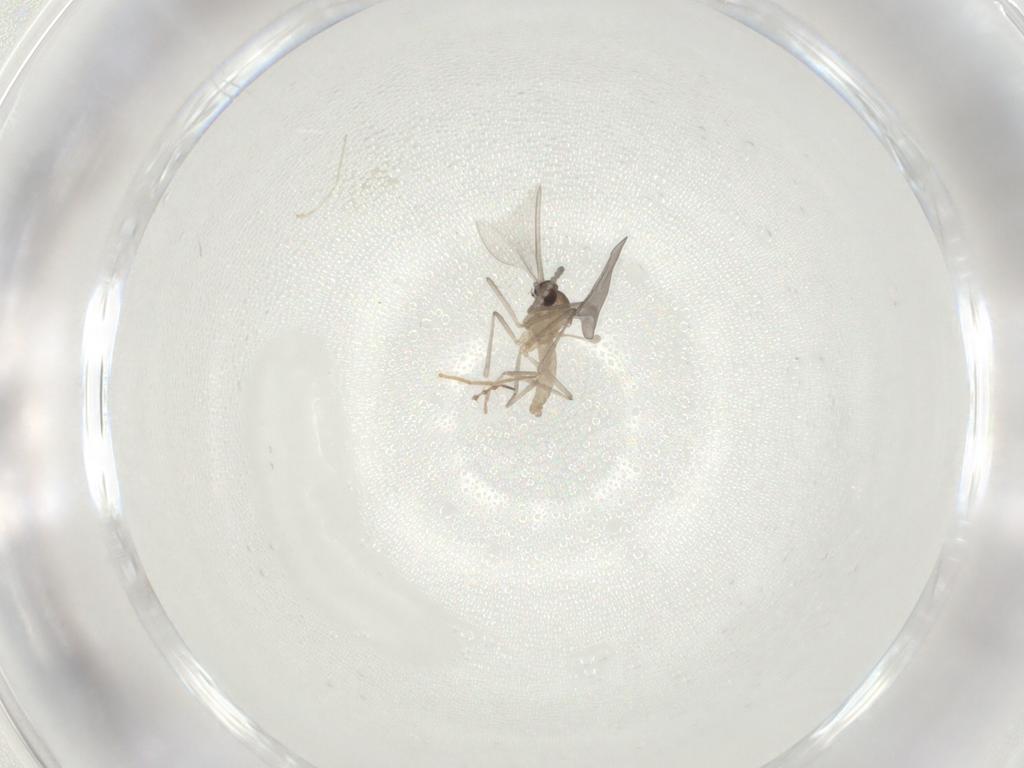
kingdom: Animalia
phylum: Arthropoda
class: Insecta
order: Diptera
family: Cecidomyiidae
